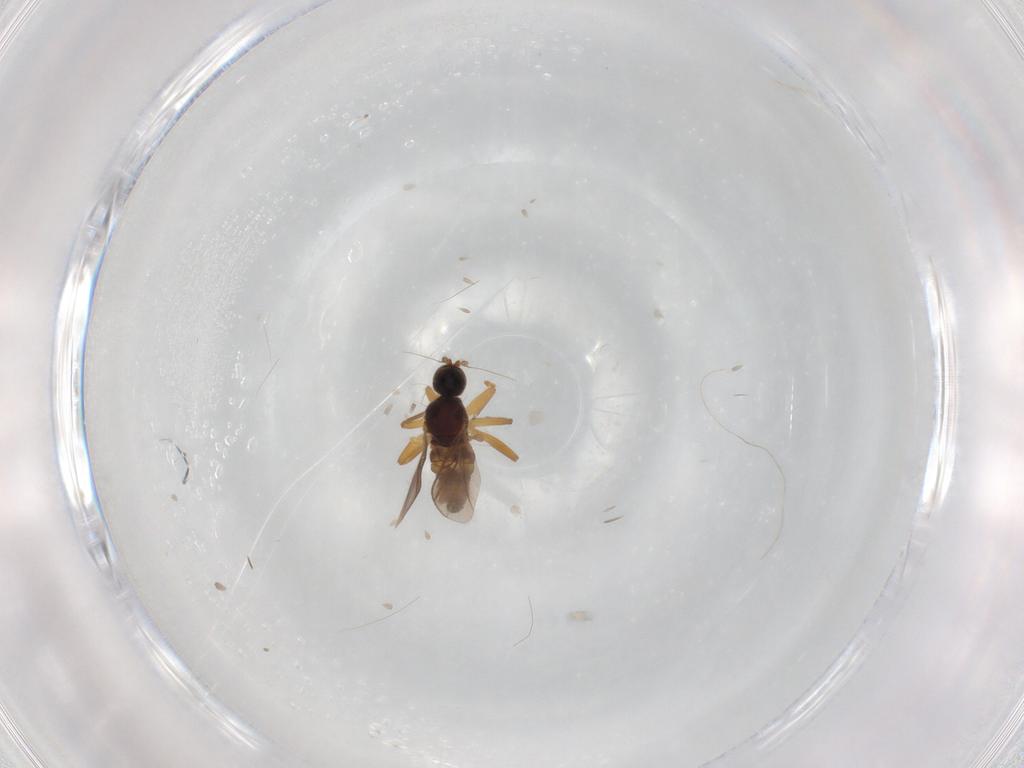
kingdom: Animalia
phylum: Arthropoda
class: Insecta
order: Diptera
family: Hybotidae
